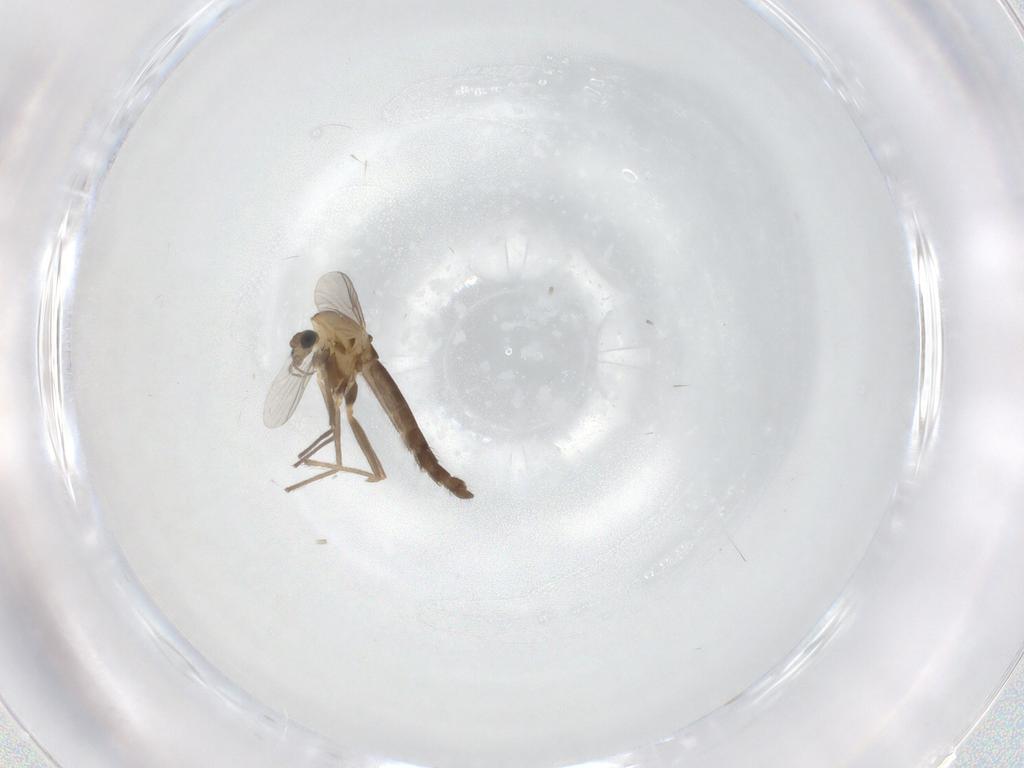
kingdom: Animalia
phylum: Arthropoda
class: Insecta
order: Diptera
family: Chironomidae
